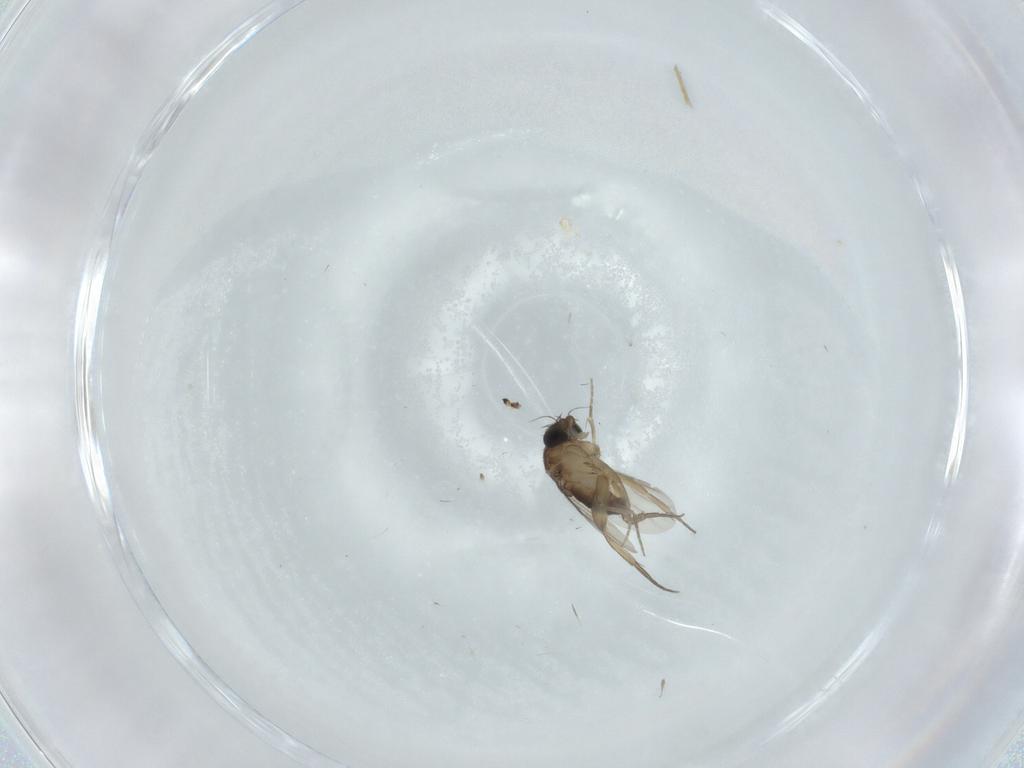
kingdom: Animalia
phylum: Arthropoda
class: Insecta
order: Diptera
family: Phoridae
